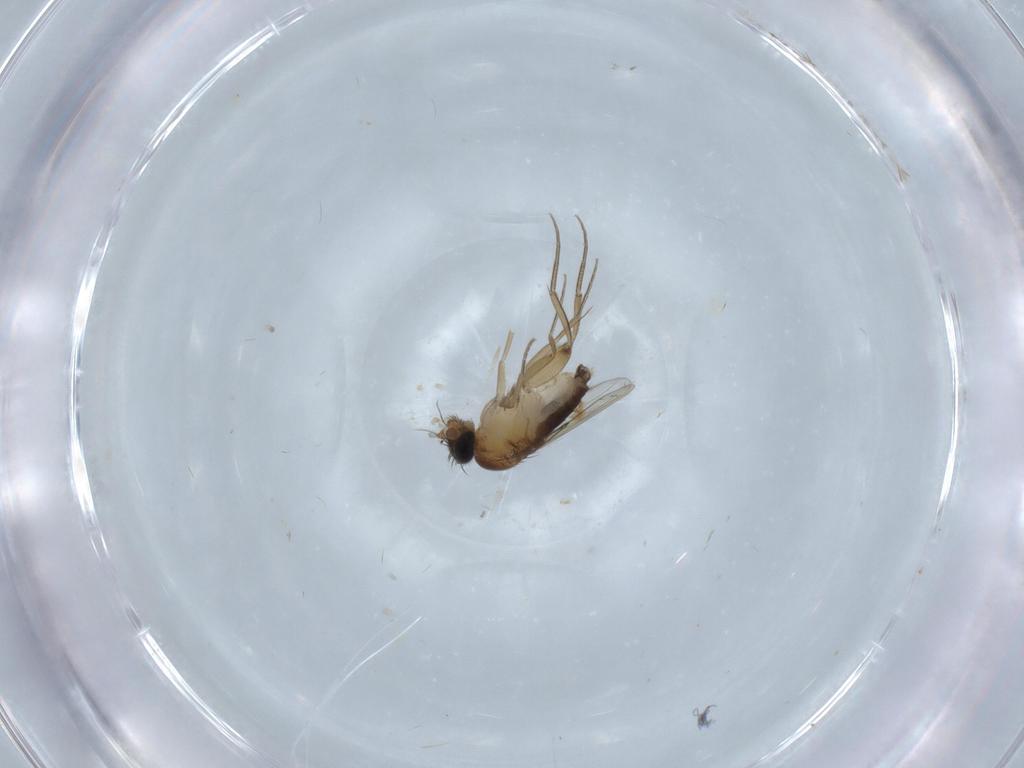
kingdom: Animalia
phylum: Arthropoda
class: Insecta
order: Diptera
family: Phoridae
